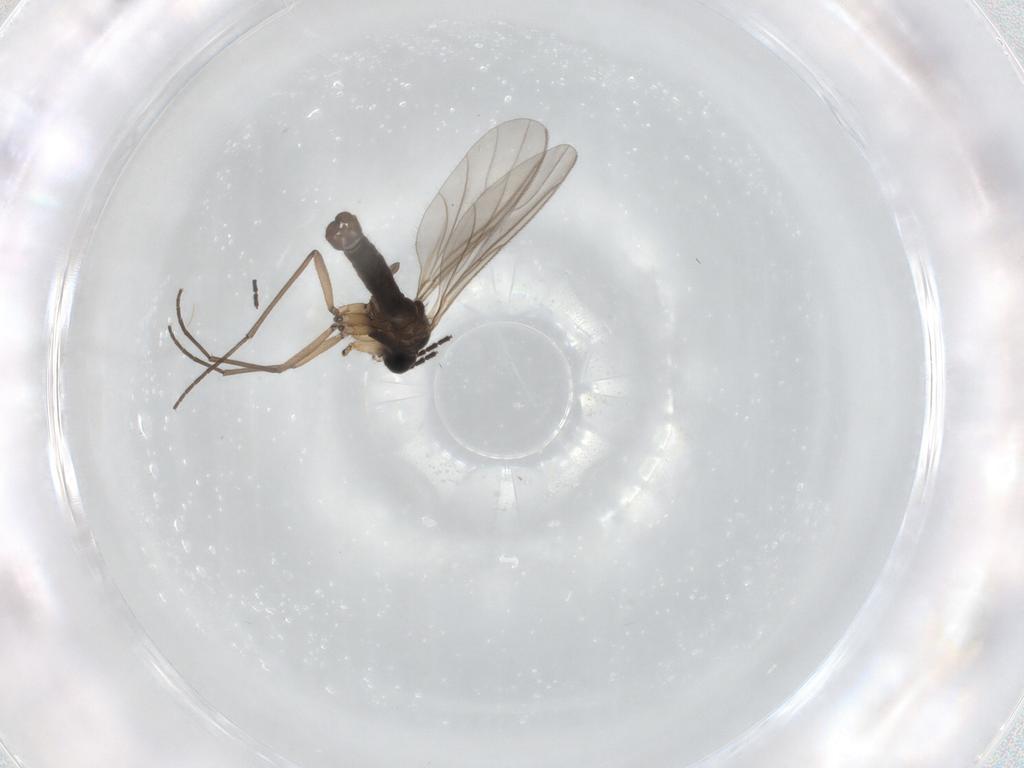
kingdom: Animalia
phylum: Arthropoda
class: Insecta
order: Diptera
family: Sciaridae
